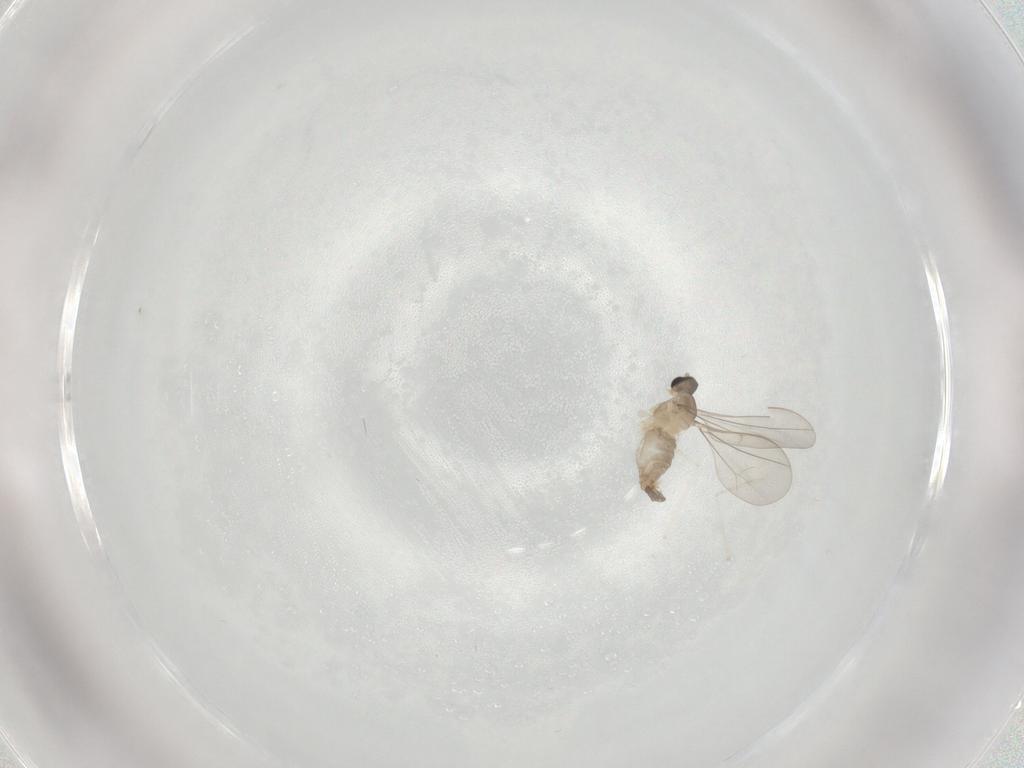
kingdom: Animalia
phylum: Arthropoda
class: Insecta
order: Diptera
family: Cecidomyiidae
